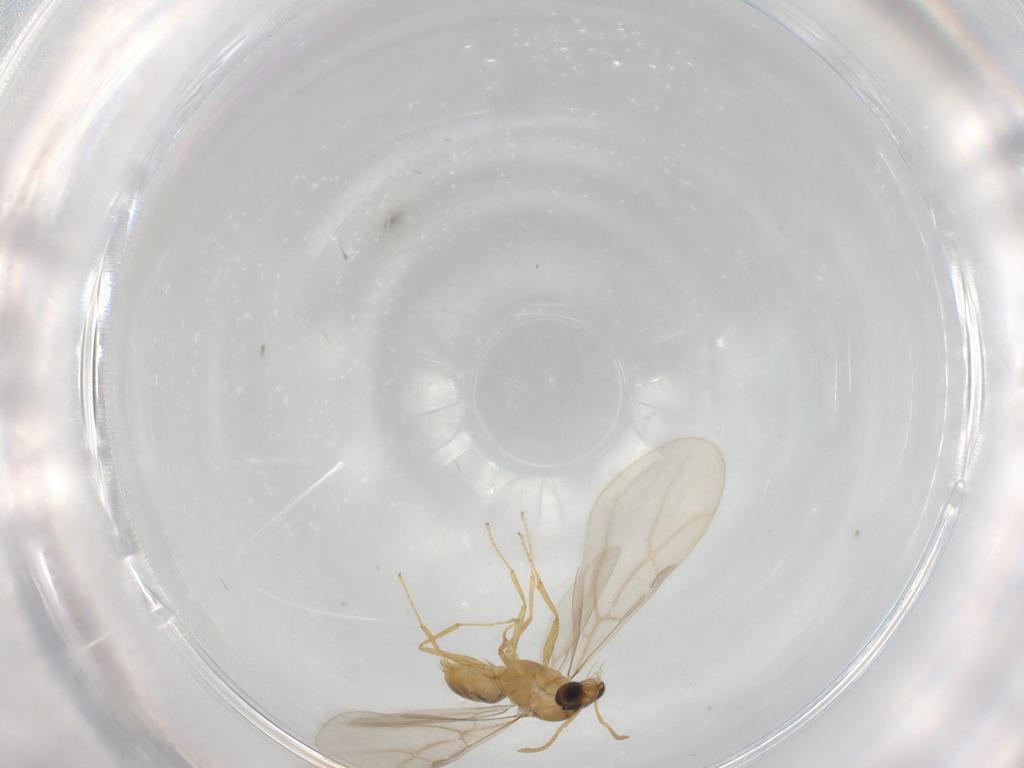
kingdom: Animalia
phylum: Arthropoda
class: Insecta
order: Hymenoptera
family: Formicidae
